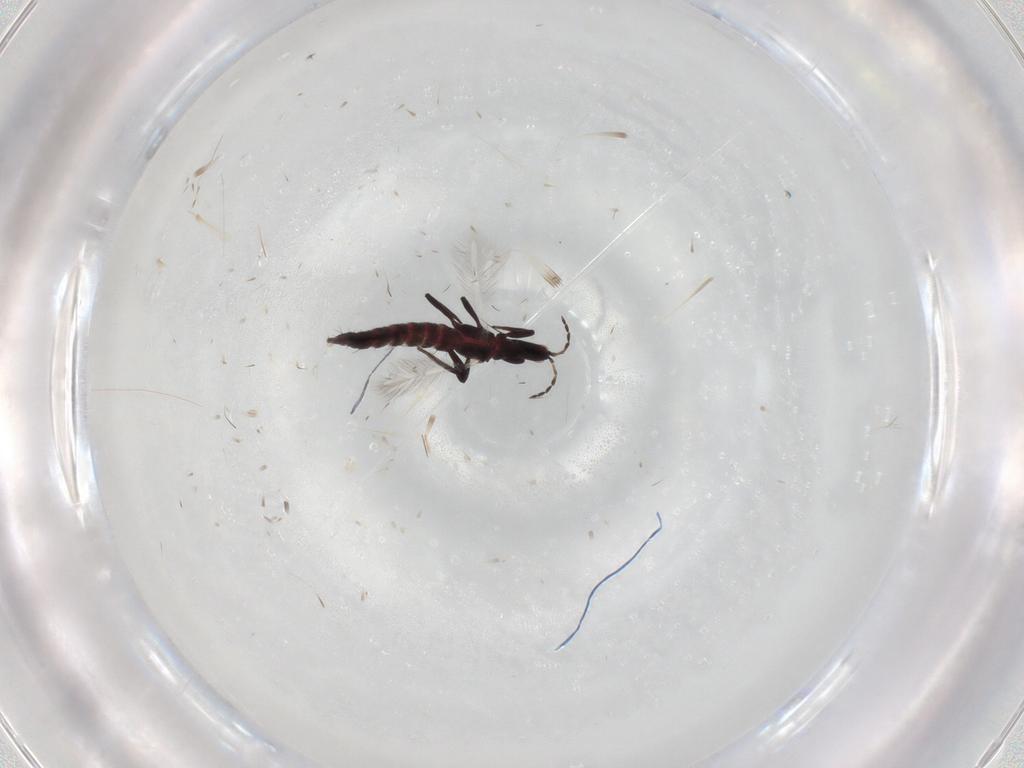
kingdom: Animalia
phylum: Arthropoda
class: Insecta
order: Thysanoptera
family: Phlaeothripidae
